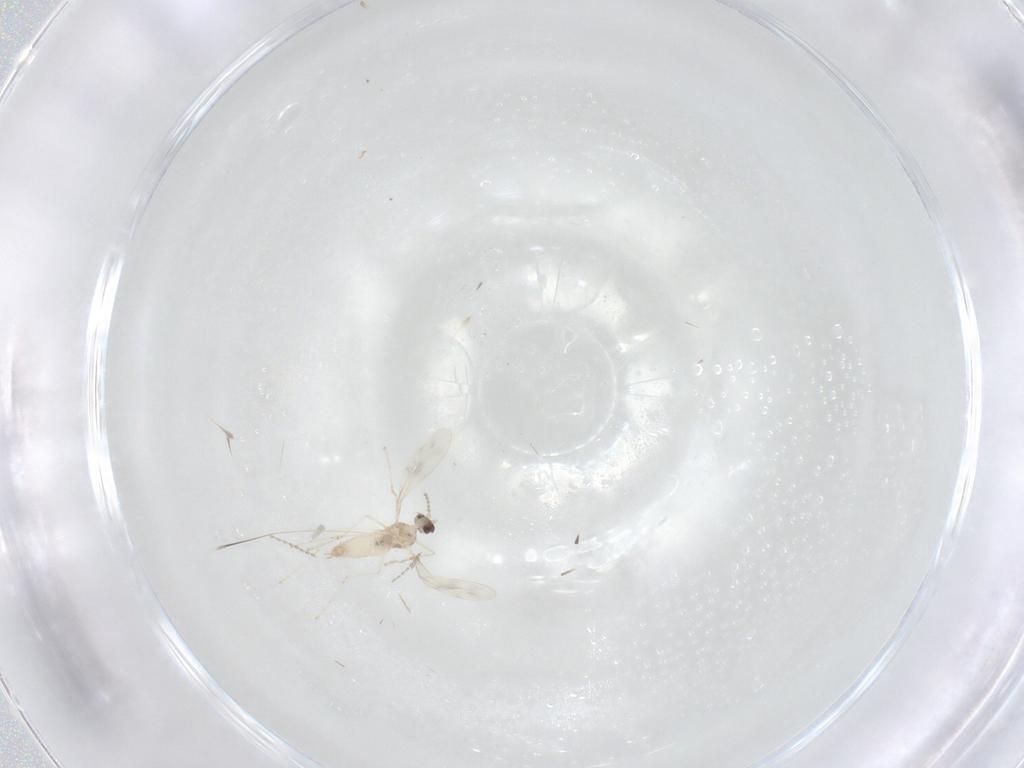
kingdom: Animalia
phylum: Arthropoda
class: Insecta
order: Diptera
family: Cecidomyiidae
